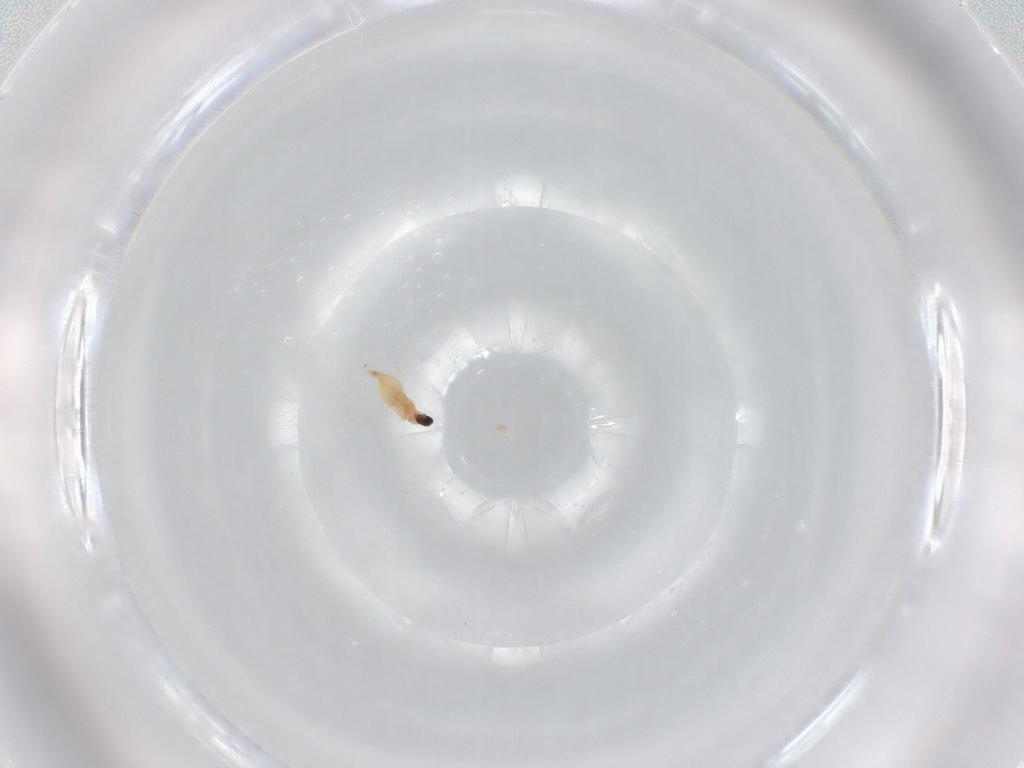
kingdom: Animalia
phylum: Arthropoda
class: Insecta
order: Diptera
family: Cecidomyiidae
